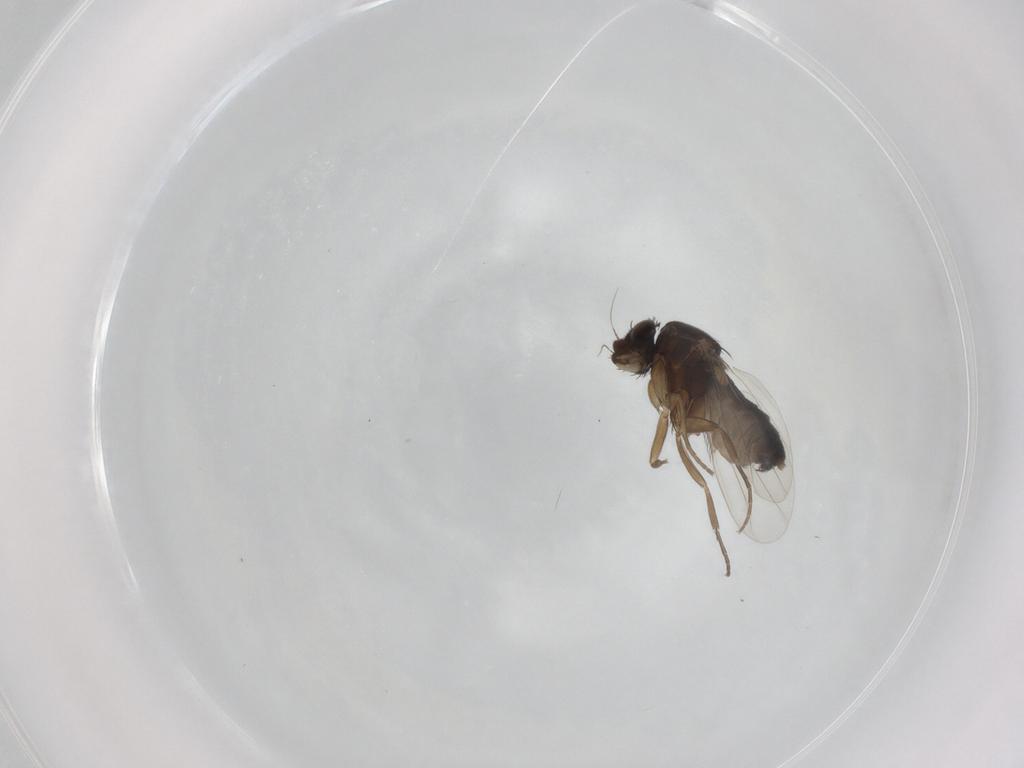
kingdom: Animalia
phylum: Arthropoda
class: Insecta
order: Diptera
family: Phoridae
